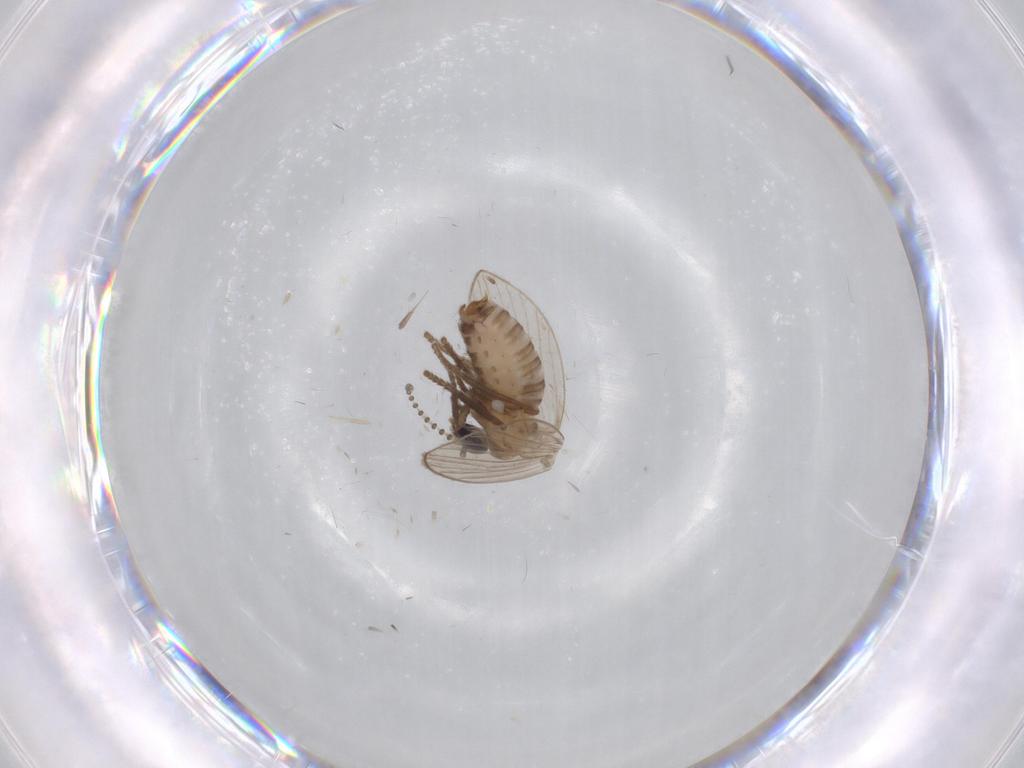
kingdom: Animalia
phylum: Arthropoda
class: Insecta
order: Diptera
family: Psychodidae
